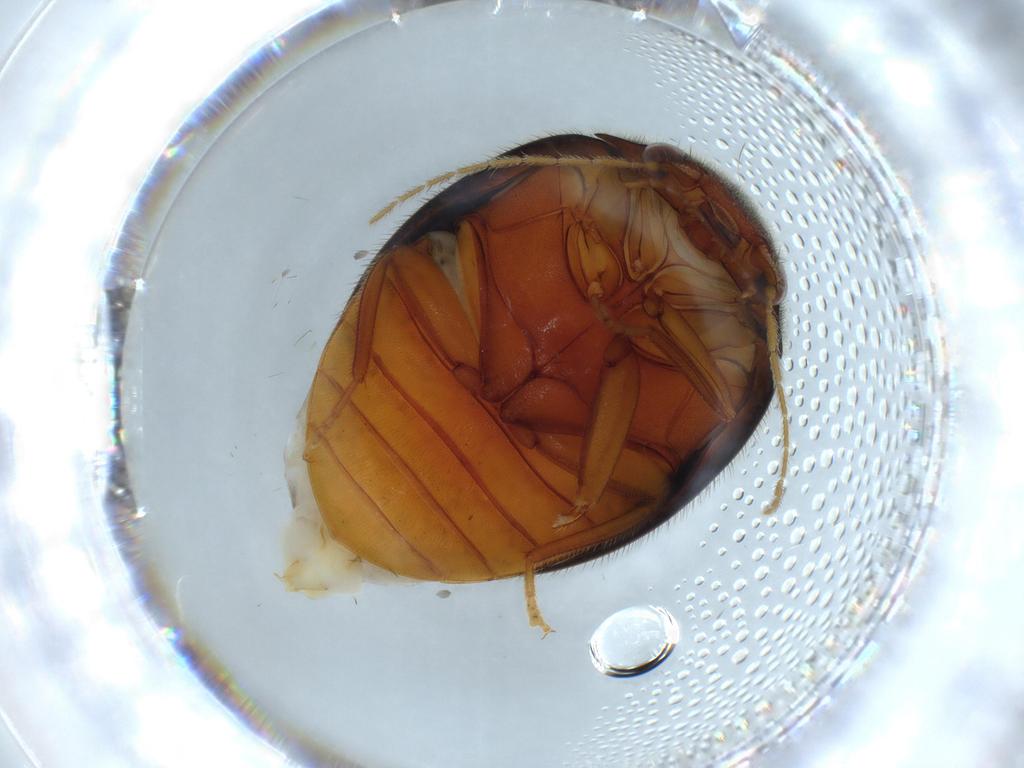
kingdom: Animalia
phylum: Arthropoda
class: Insecta
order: Coleoptera
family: Scirtidae
